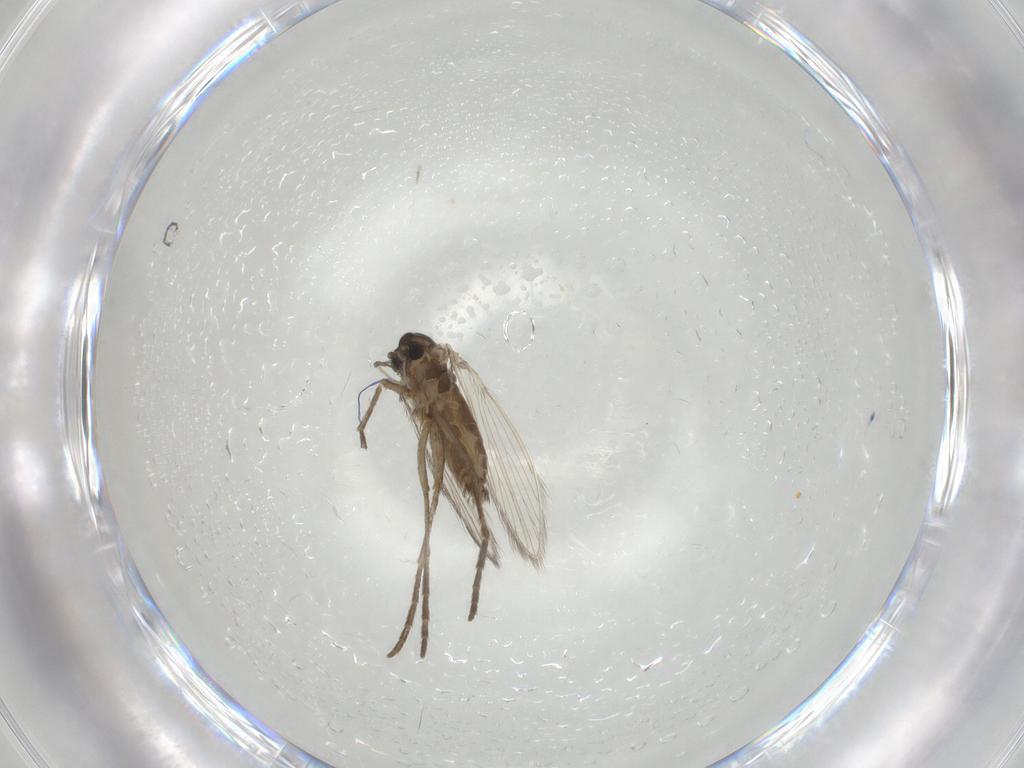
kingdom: Animalia
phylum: Arthropoda
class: Insecta
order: Diptera
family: Psychodidae
